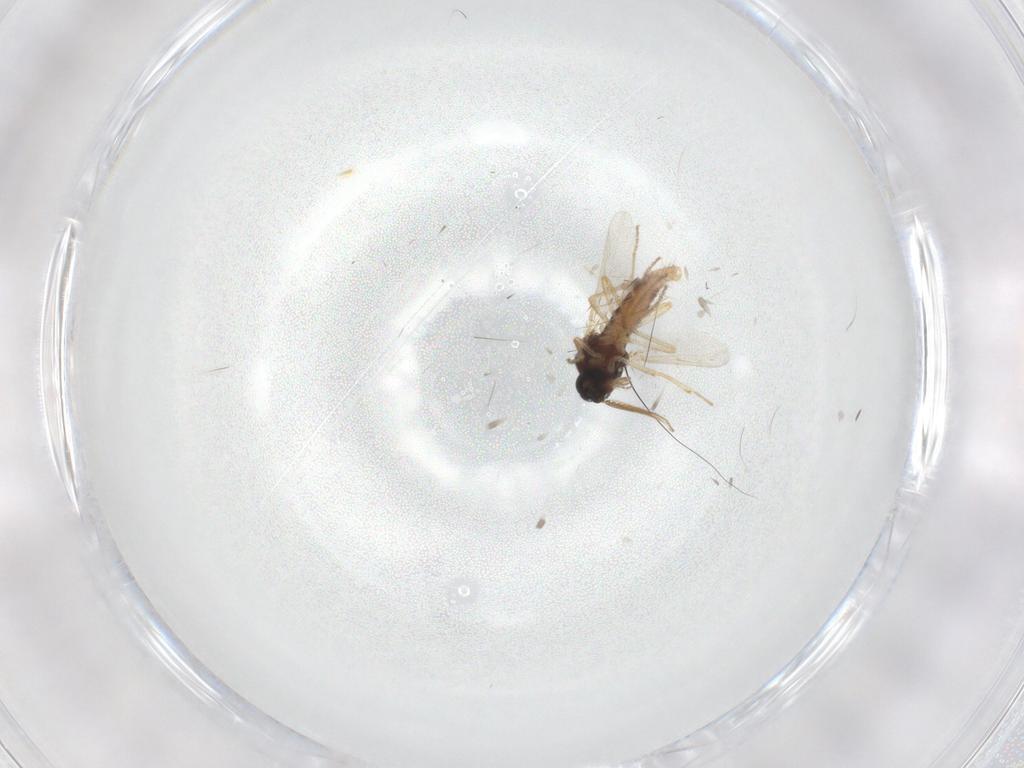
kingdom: Animalia
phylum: Arthropoda
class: Insecta
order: Diptera
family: Ceratopogonidae
